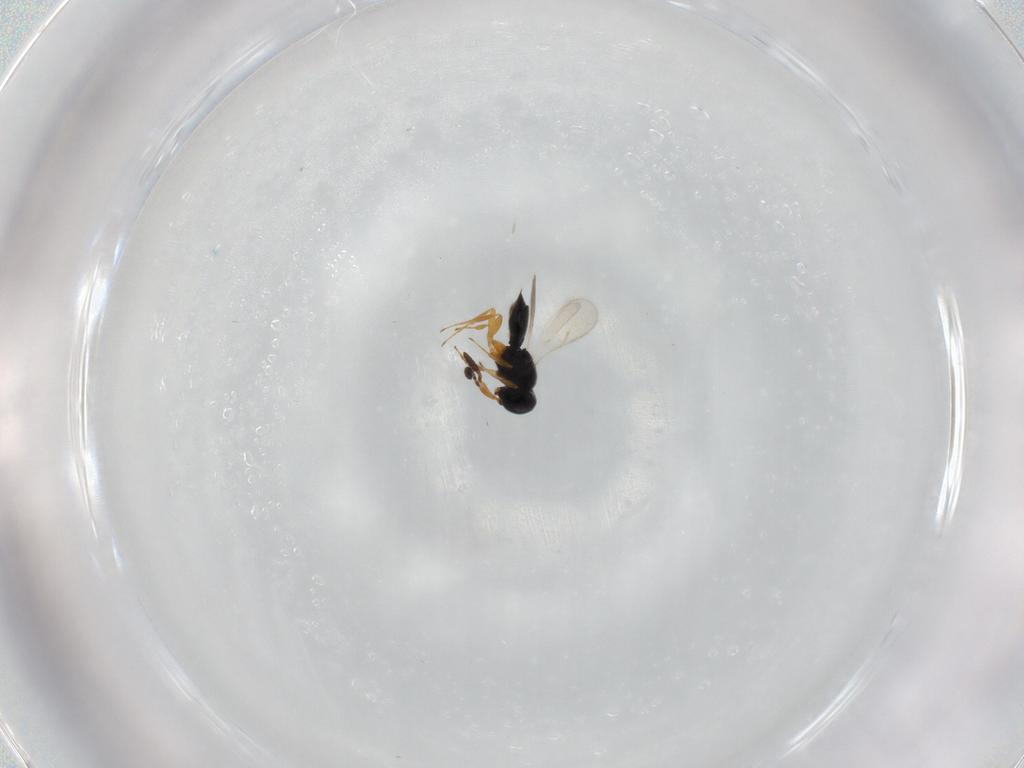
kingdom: Animalia
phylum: Arthropoda
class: Insecta
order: Hymenoptera
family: Scelionidae
